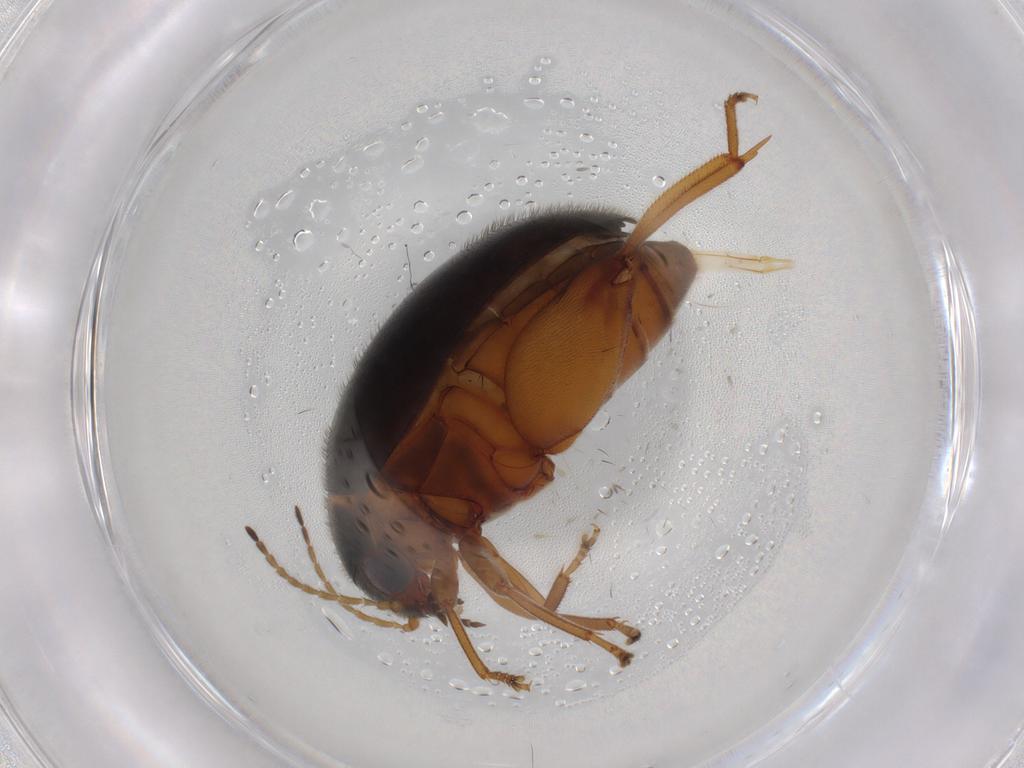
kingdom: Animalia
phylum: Arthropoda
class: Insecta
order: Coleoptera
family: Scirtidae
